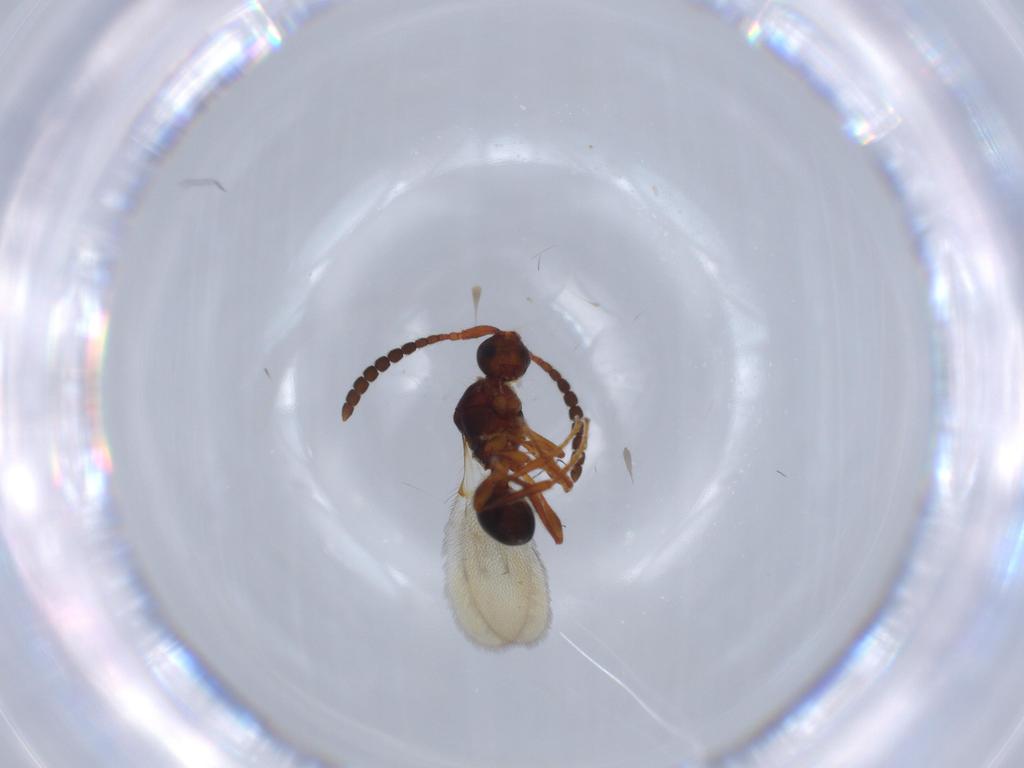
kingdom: Animalia
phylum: Arthropoda
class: Insecta
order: Hymenoptera
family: Diapriidae
